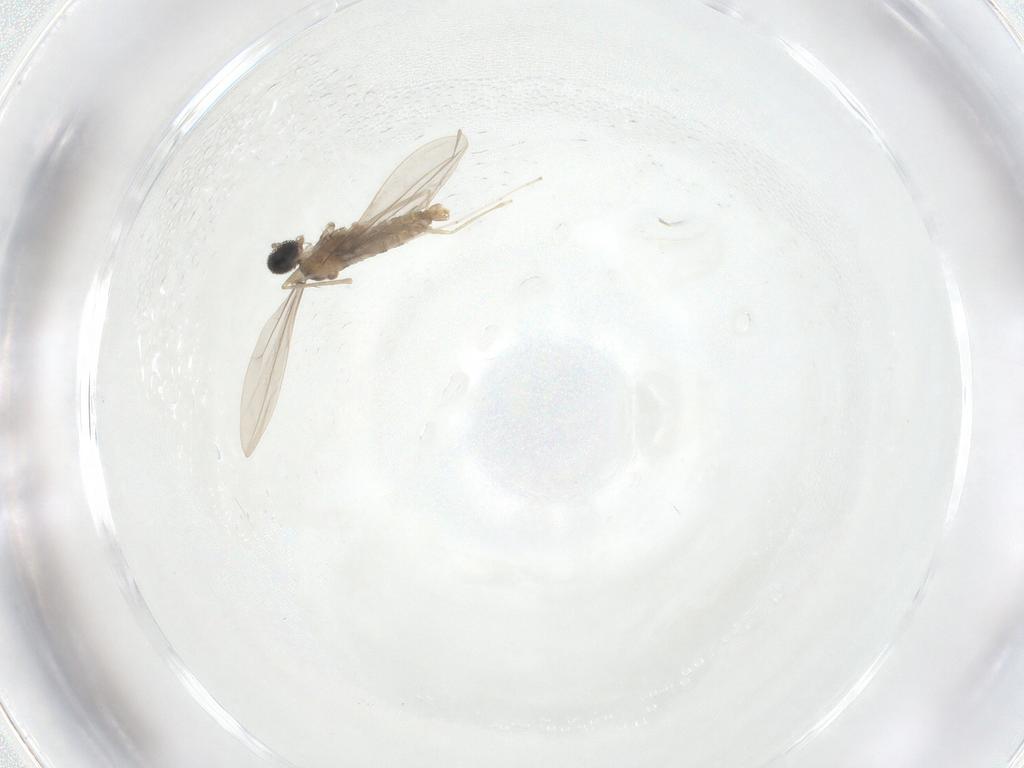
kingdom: Animalia
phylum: Arthropoda
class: Insecta
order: Diptera
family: Cecidomyiidae
